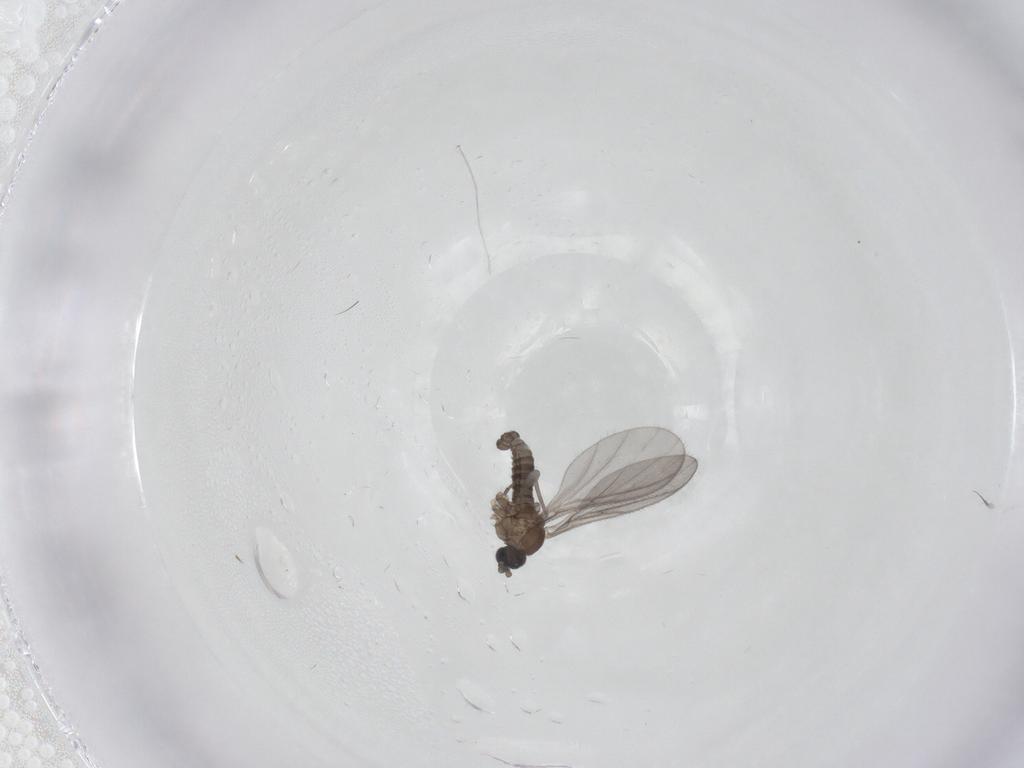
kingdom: Animalia
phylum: Arthropoda
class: Insecta
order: Diptera
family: Sciaridae
